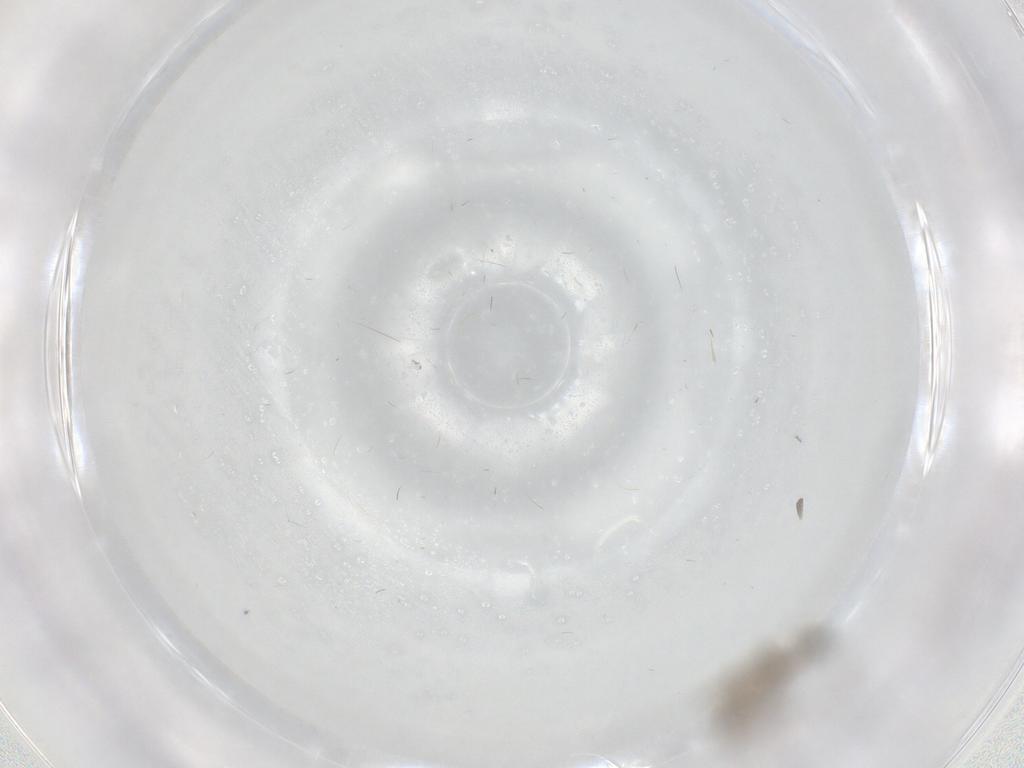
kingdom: Animalia
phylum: Arthropoda
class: Insecta
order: Hemiptera
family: Enicocephalidae
